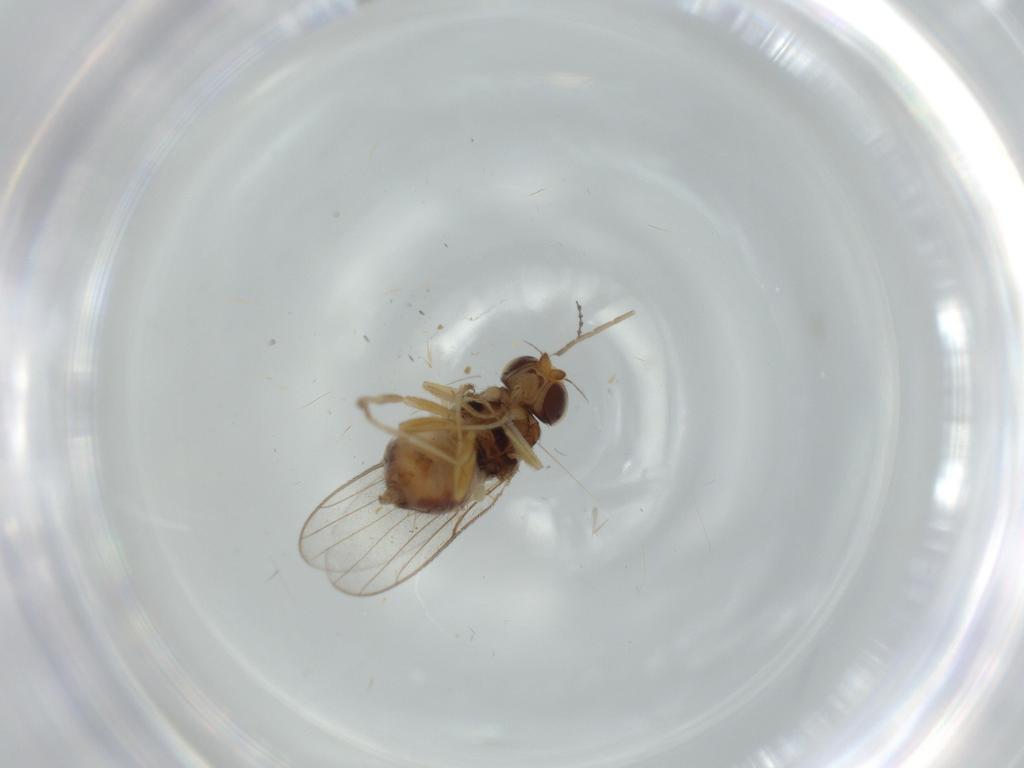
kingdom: Animalia
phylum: Arthropoda
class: Insecta
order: Diptera
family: Chloropidae
